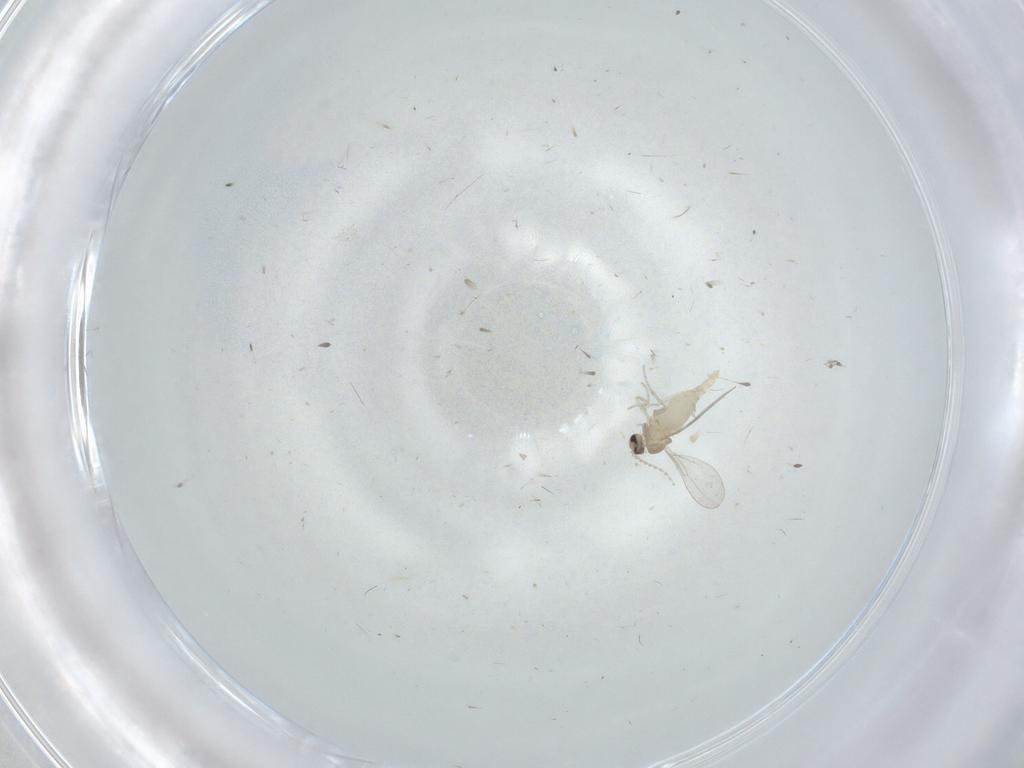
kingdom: Animalia
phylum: Arthropoda
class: Insecta
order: Diptera
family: Cecidomyiidae
